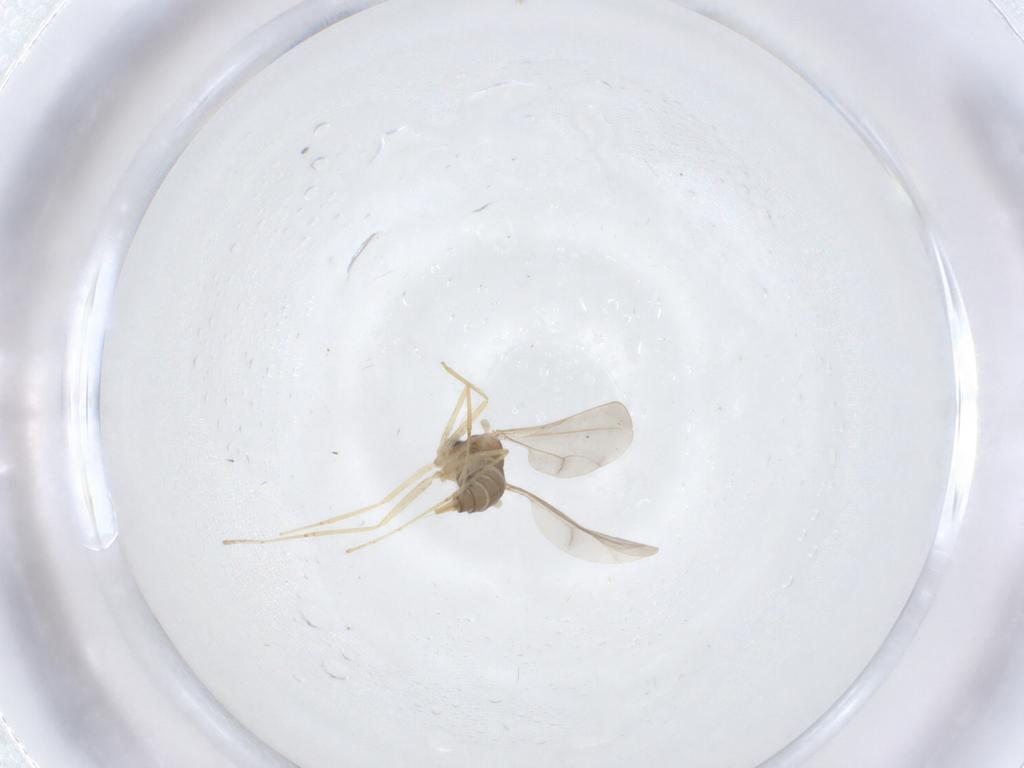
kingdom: Animalia
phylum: Arthropoda
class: Insecta
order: Diptera
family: Cecidomyiidae
